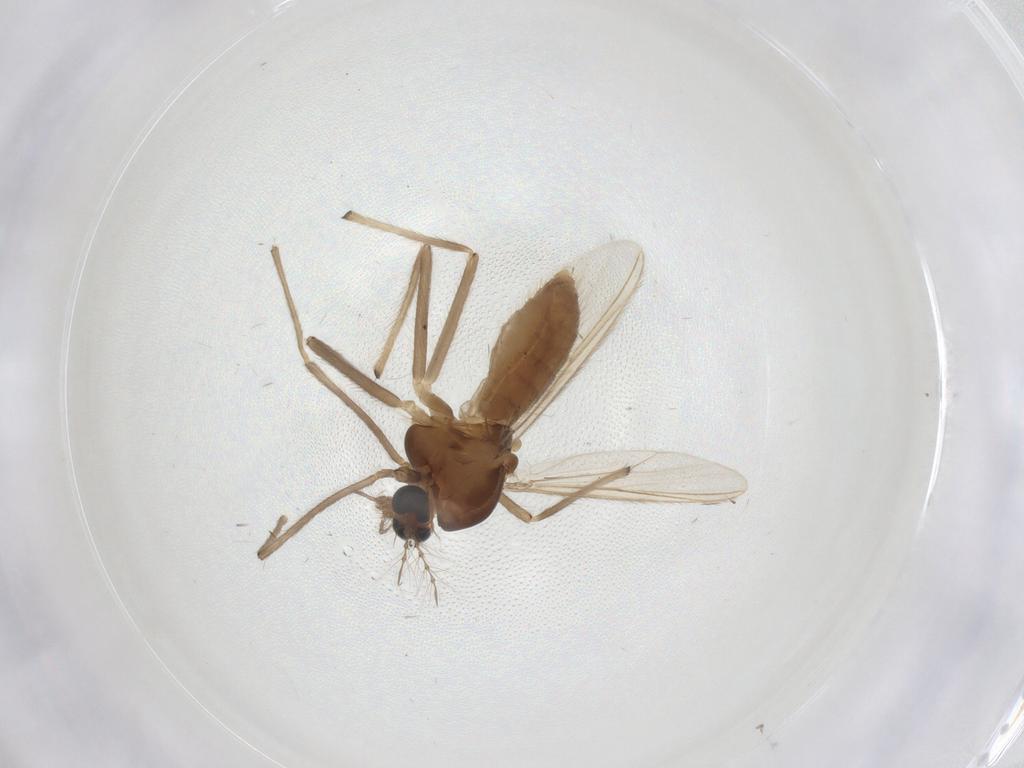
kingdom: Animalia
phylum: Arthropoda
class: Insecta
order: Diptera
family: Chironomidae
